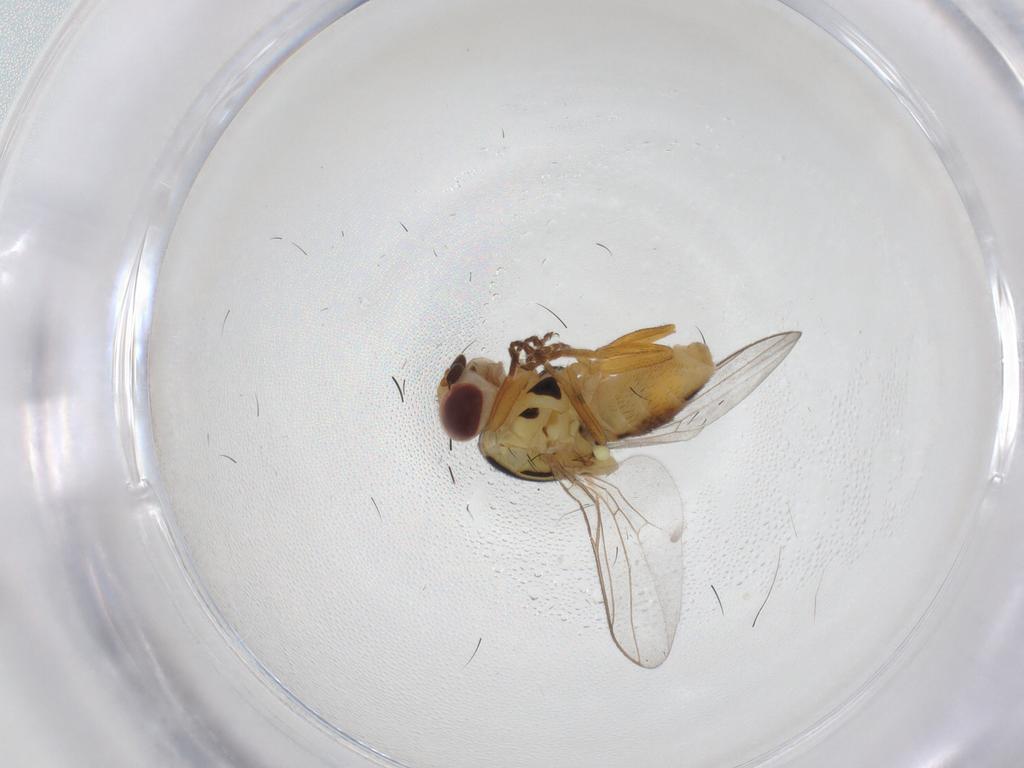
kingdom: Animalia
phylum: Arthropoda
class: Insecta
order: Diptera
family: Chloropidae
